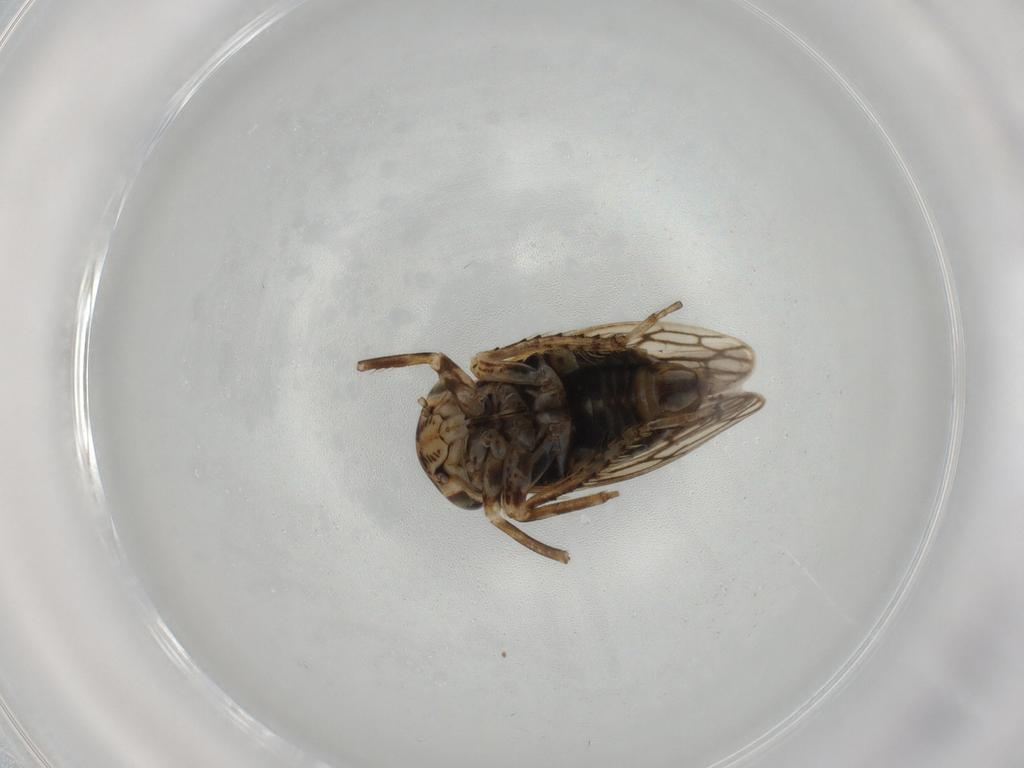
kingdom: Animalia
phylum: Arthropoda
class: Insecta
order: Hemiptera
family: Cicadellidae
